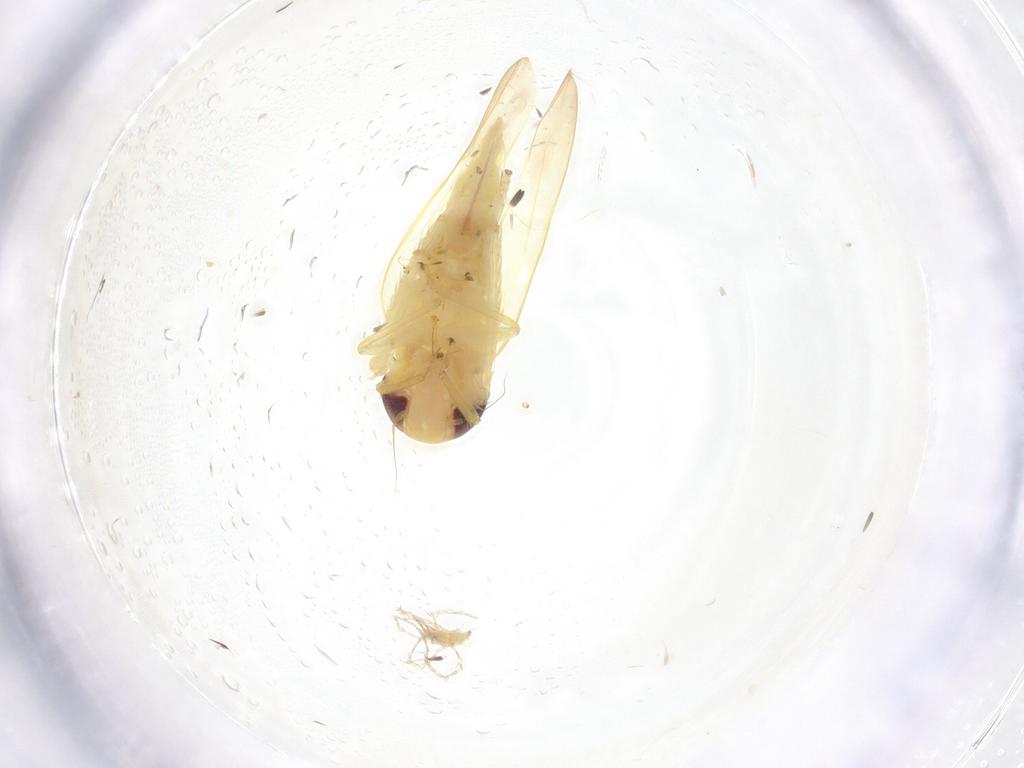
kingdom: Animalia
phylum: Arthropoda
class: Insecta
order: Hemiptera
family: Cicadellidae
